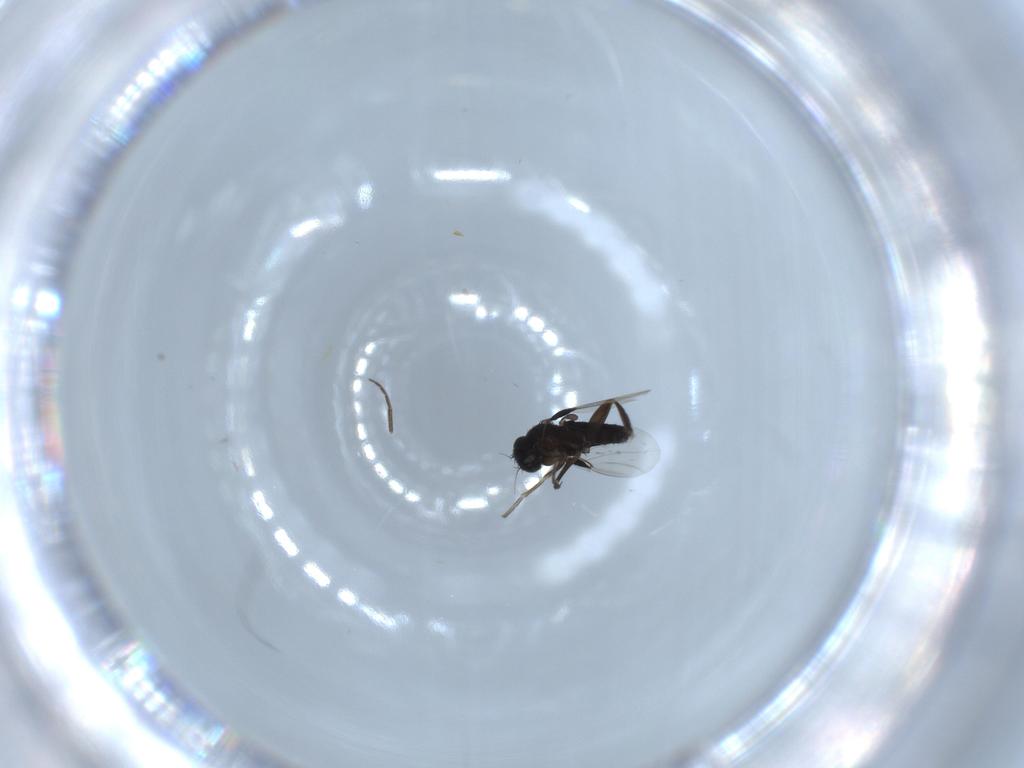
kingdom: Animalia
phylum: Arthropoda
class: Insecta
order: Diptera
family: Phoridae
